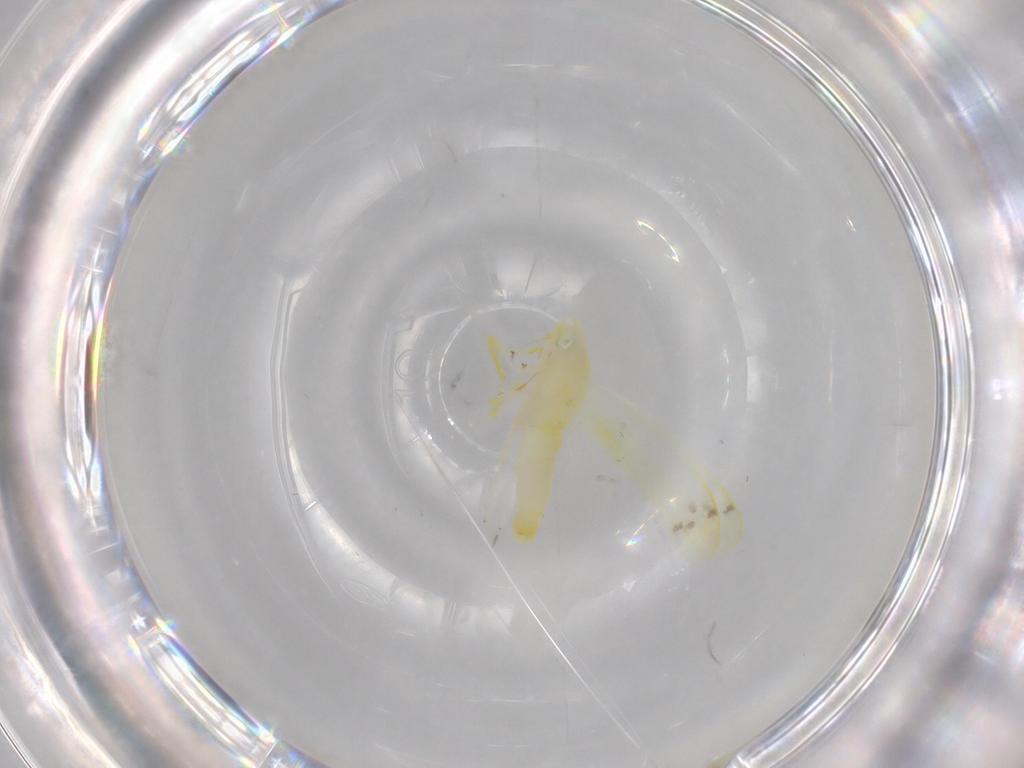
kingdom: Animalia
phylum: Arthropoda
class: Insecta
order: Hemiptera
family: Cicadellidae
